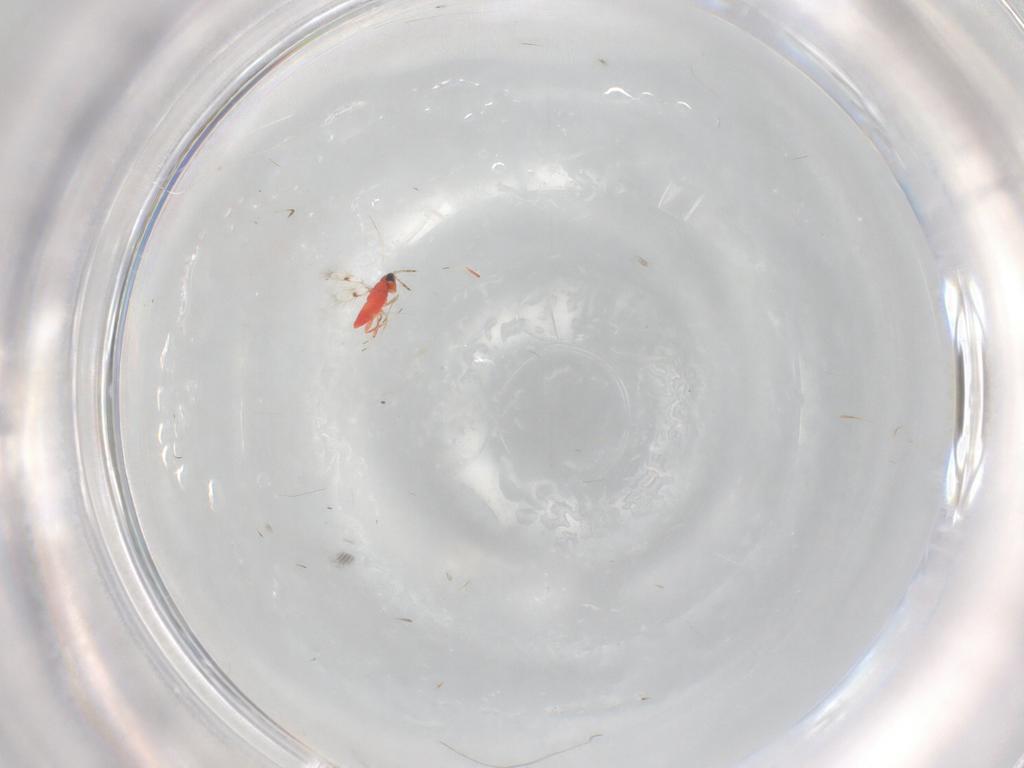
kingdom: Animalia
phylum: Arthropoda
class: Insecta
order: Hymenoptera
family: Trichogrammatidae
